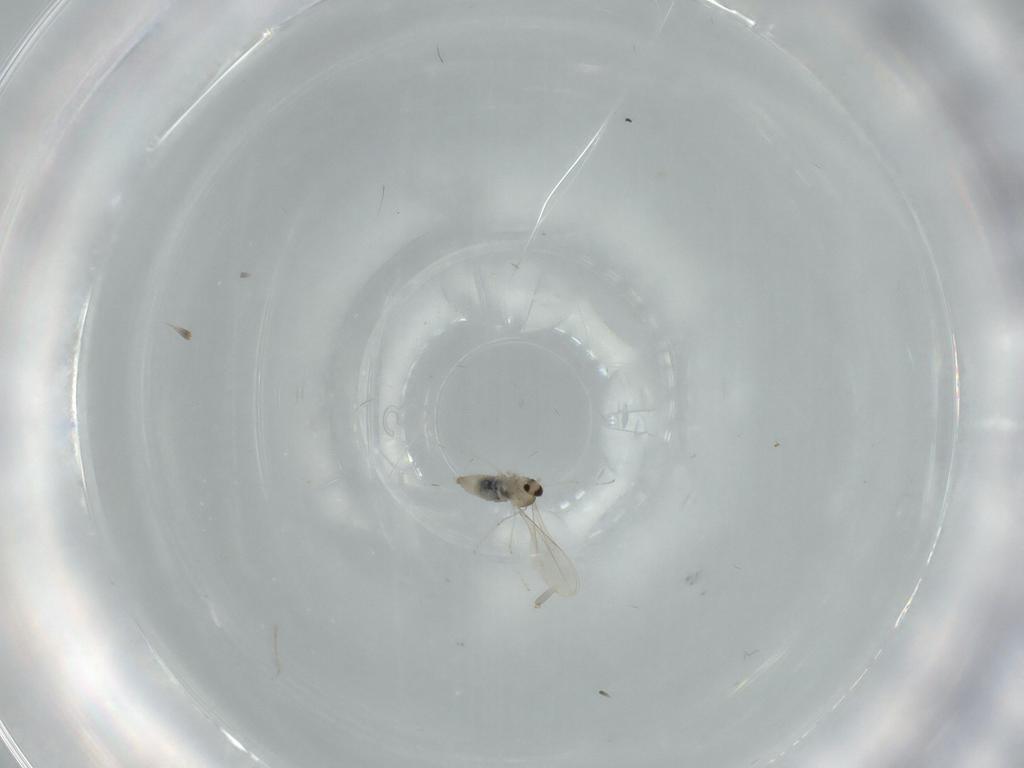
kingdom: Animalia
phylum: Arthropoda
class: Insecta
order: Diptera
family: Cecidomyiidae
